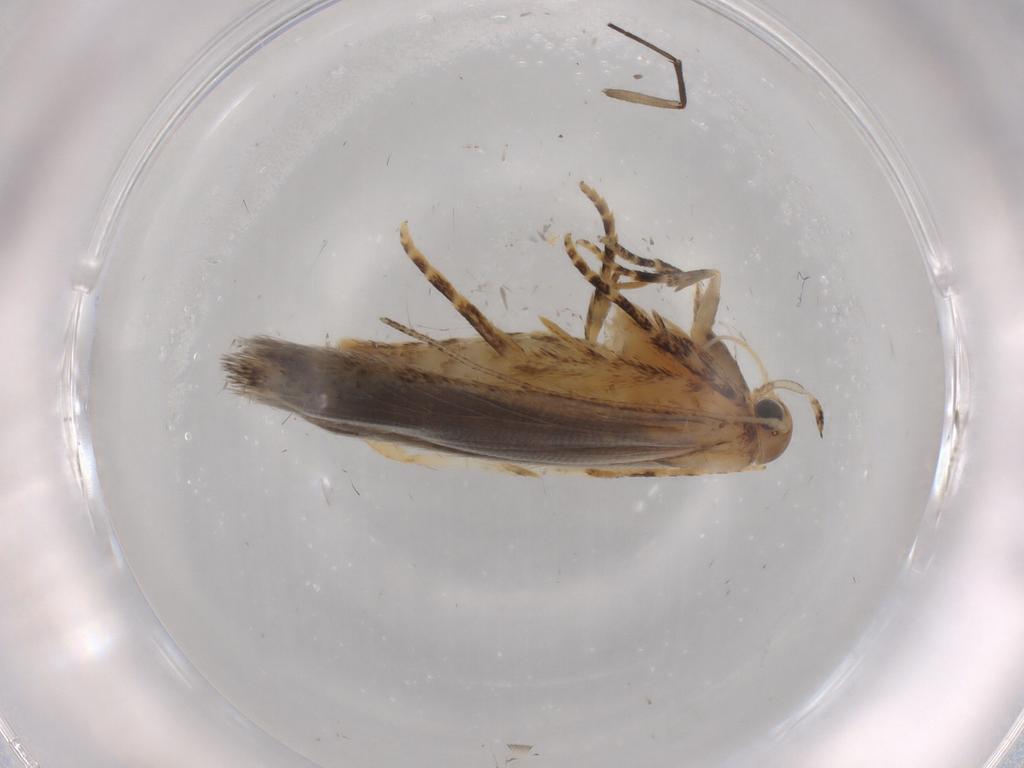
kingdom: Animalia
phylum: Arthropoda
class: Insecta
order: Lepidoptera
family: Gelechiidae
